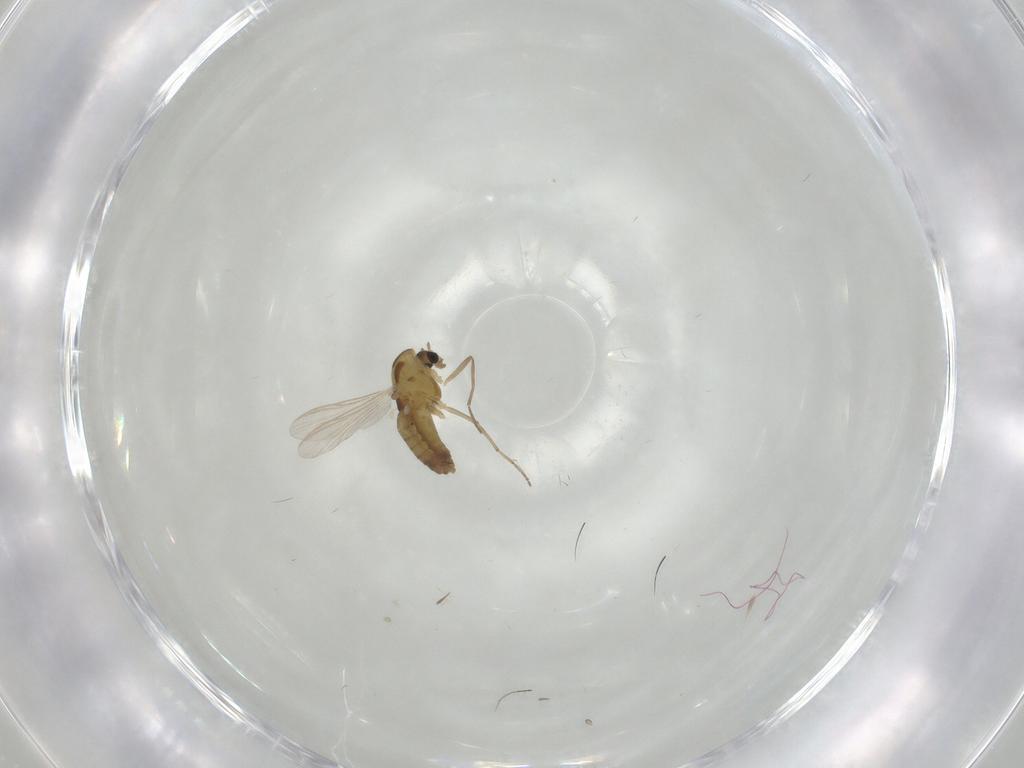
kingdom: Animalia
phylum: Arthropoda
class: Insecta
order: Diptera
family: Chironomidae
